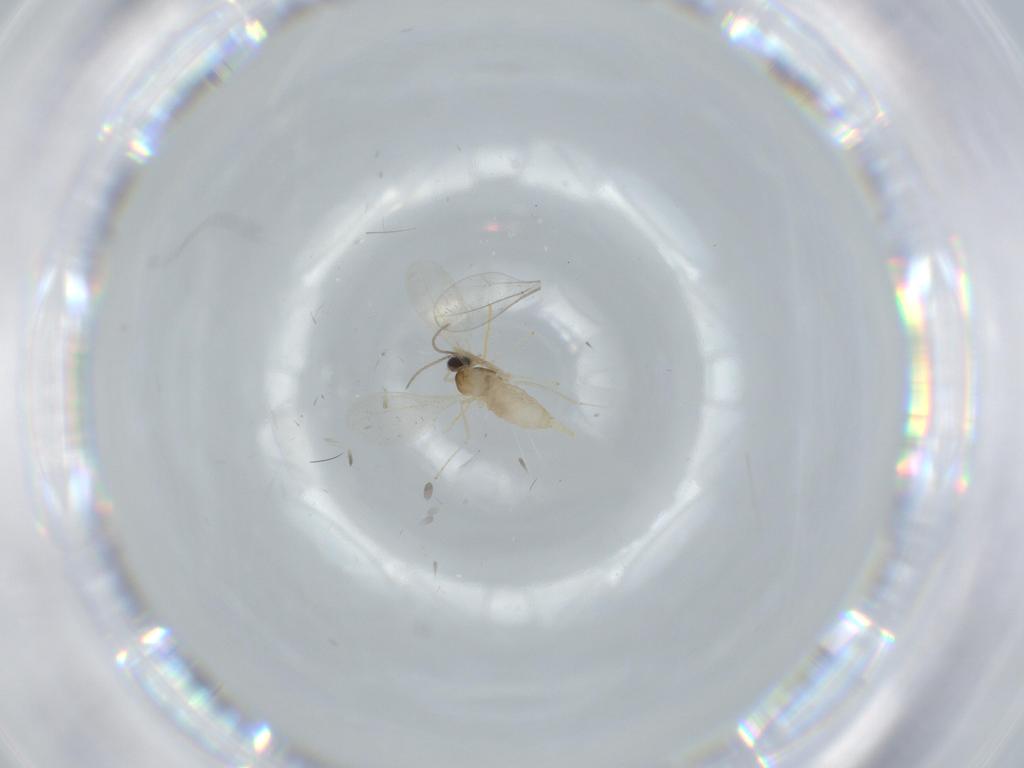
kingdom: Animalia
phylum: Arthropoda
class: Insecta
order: Diptera
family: Cecidomyiidae
